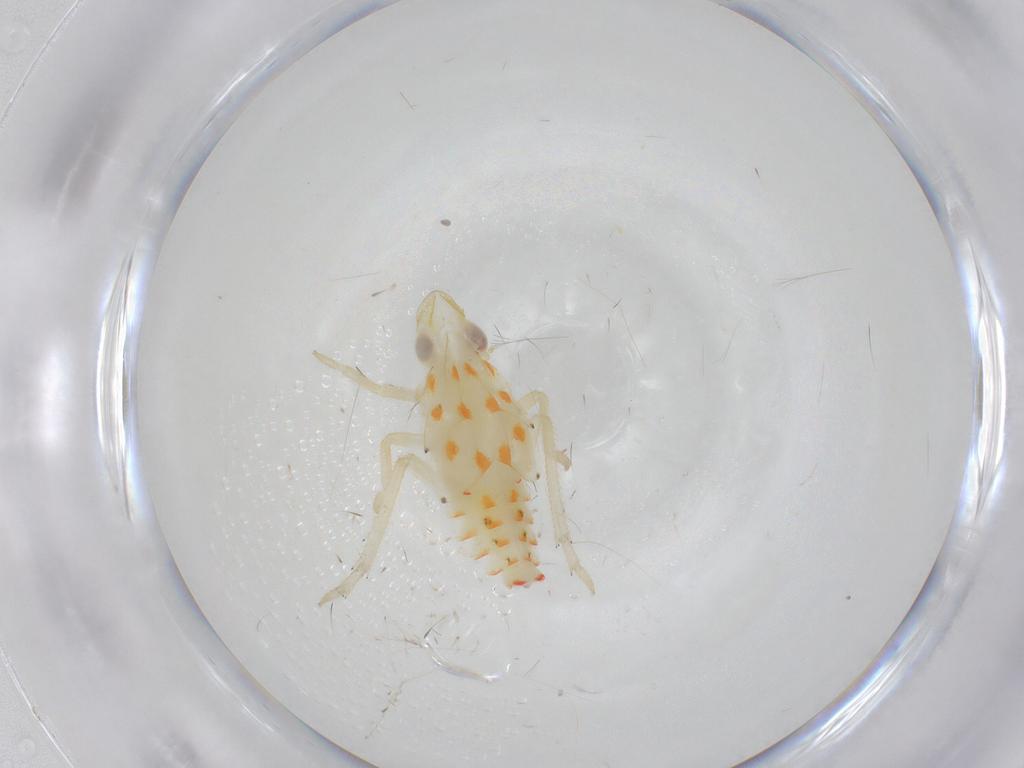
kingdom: Animalia
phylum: Arthropoda
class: Insecta
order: Hemiptera
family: Tropiduchidae
